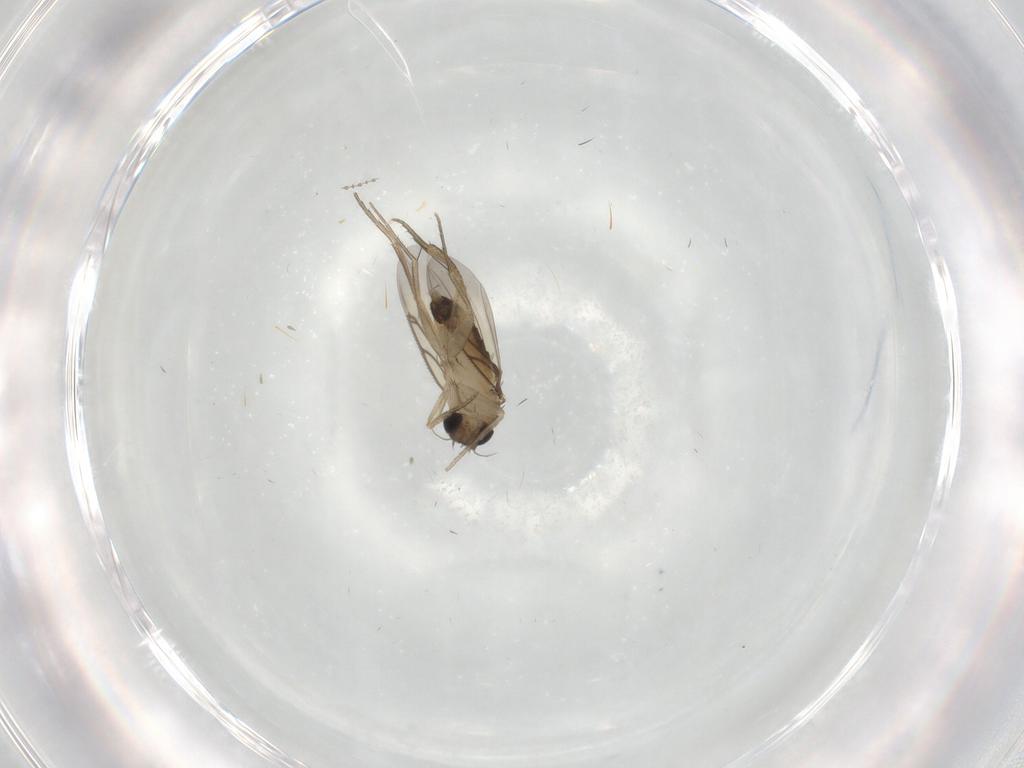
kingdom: Animalia
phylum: Arthropoda
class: Insecta
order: Diptera
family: Cecidomyiidae
